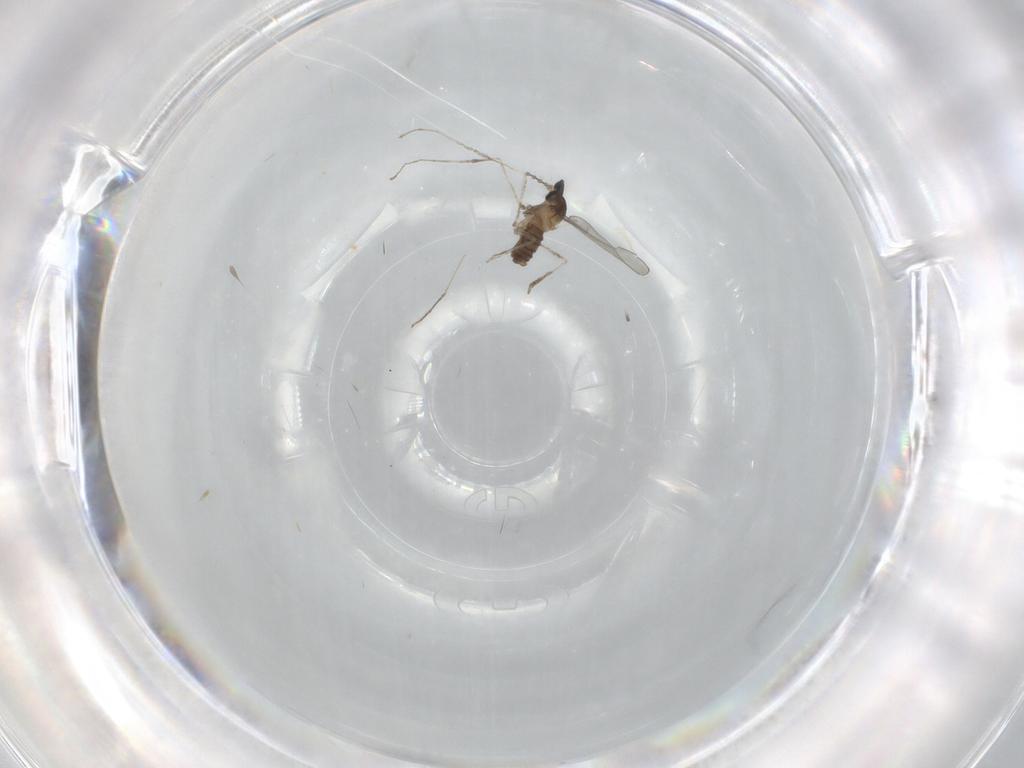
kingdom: Animalia
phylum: Arthropoda
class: Insecta
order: Diptera
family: Cecidomyiidae
